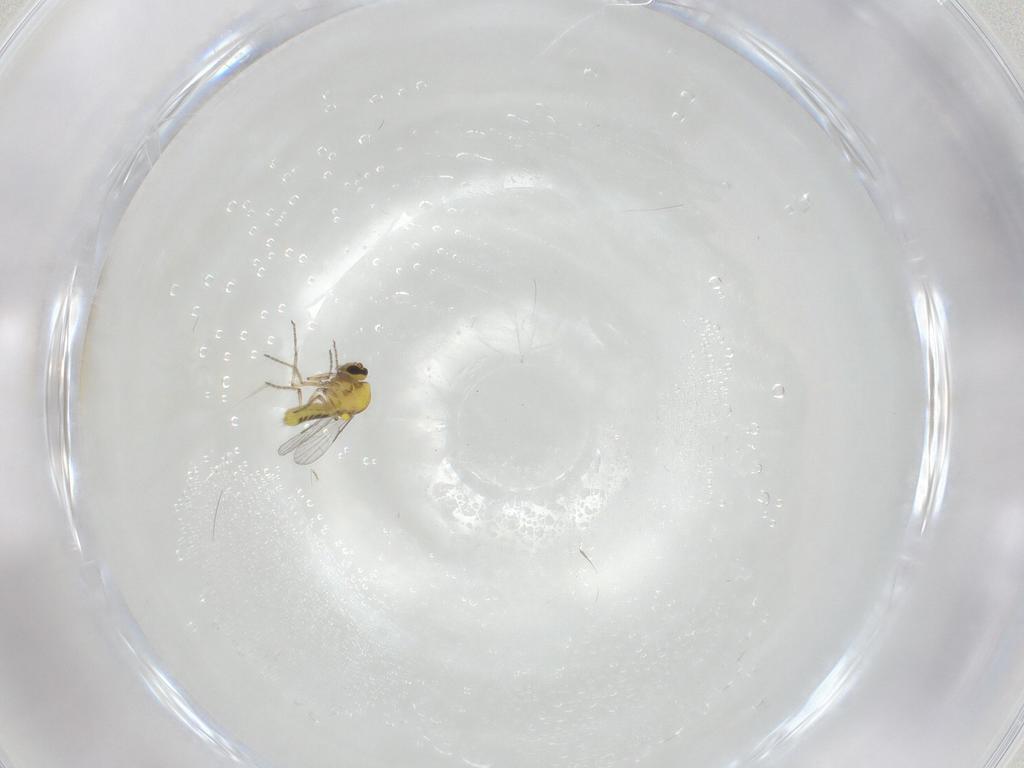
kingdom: Animalia
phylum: Arthropoda
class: Insecta
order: Diptera
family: Ceratopogonidae
